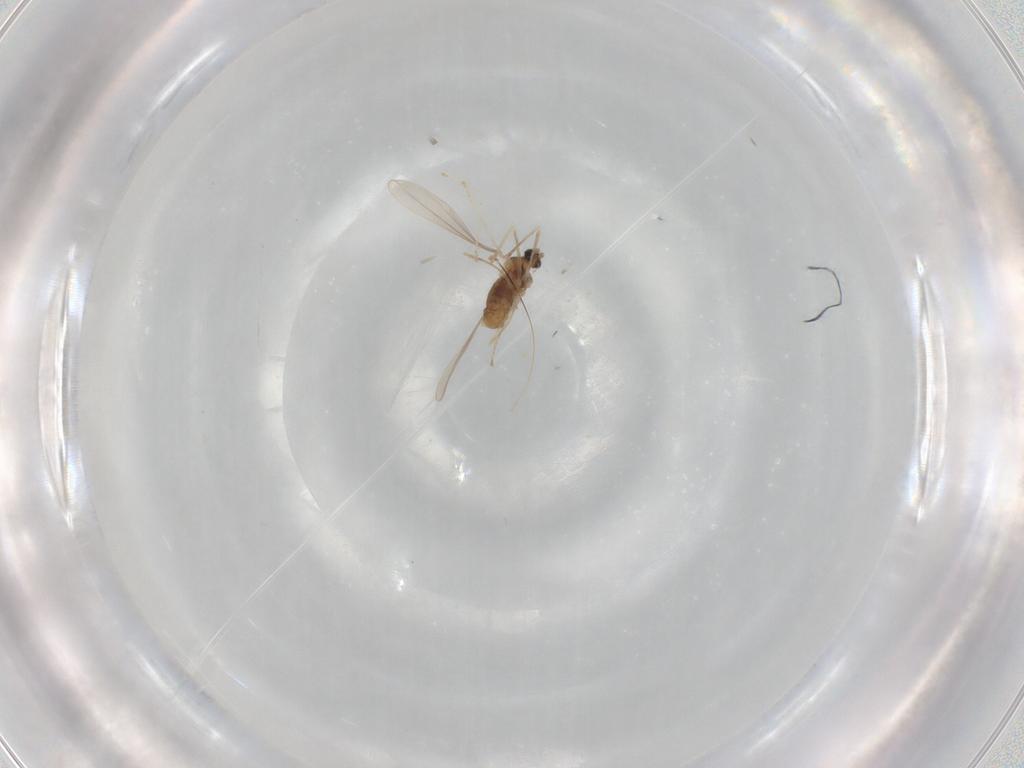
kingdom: Animalia
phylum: Arthropoda
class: Insecta
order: Diptera
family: Cecidomyiidae
